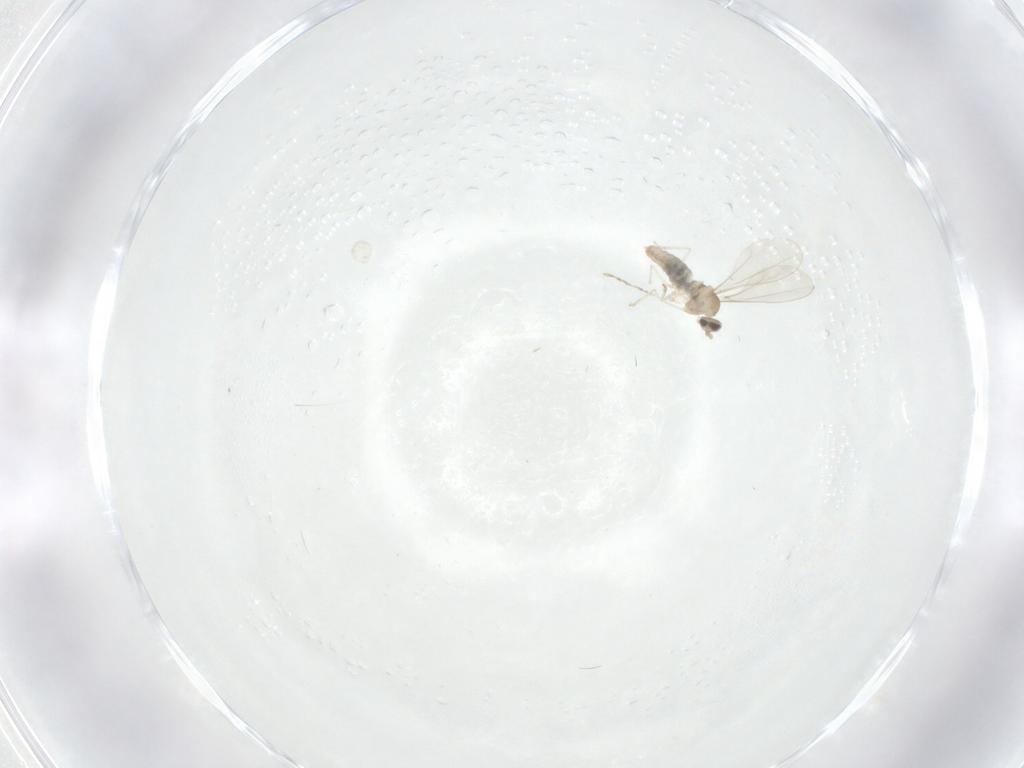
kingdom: Animalia
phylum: Arthropoda
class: Insecta
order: Diptera
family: Cecidomyiidae
